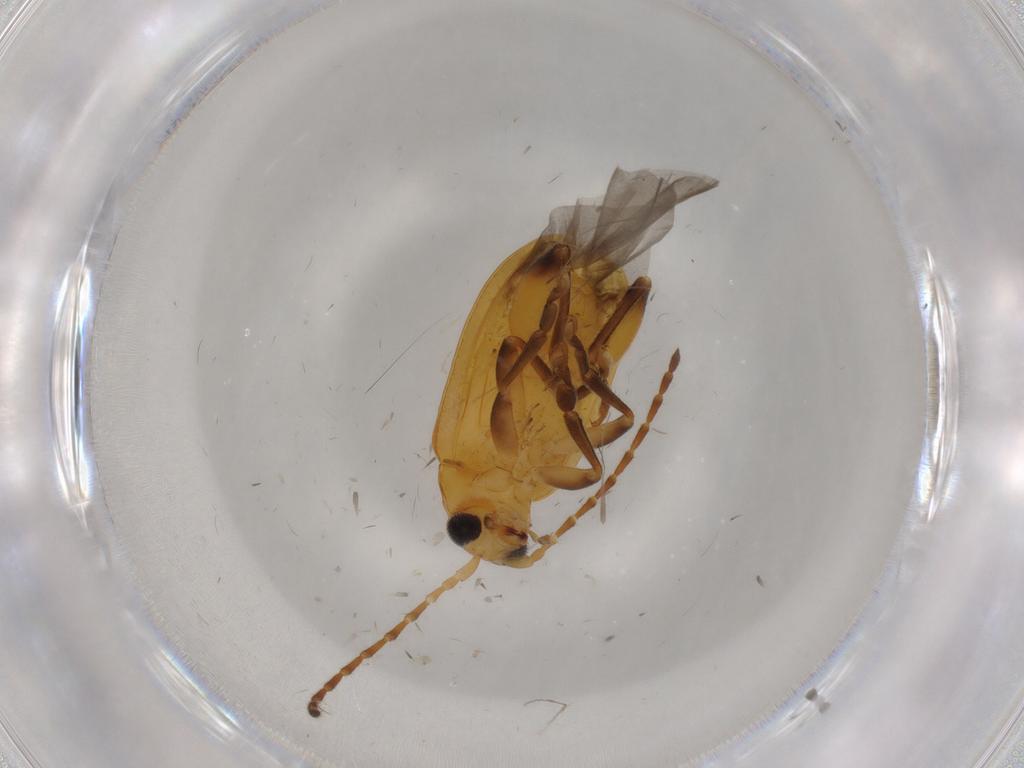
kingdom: Animalia
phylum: Arthropoda
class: Insecta
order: Coleoptera
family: Chrysomelidae
